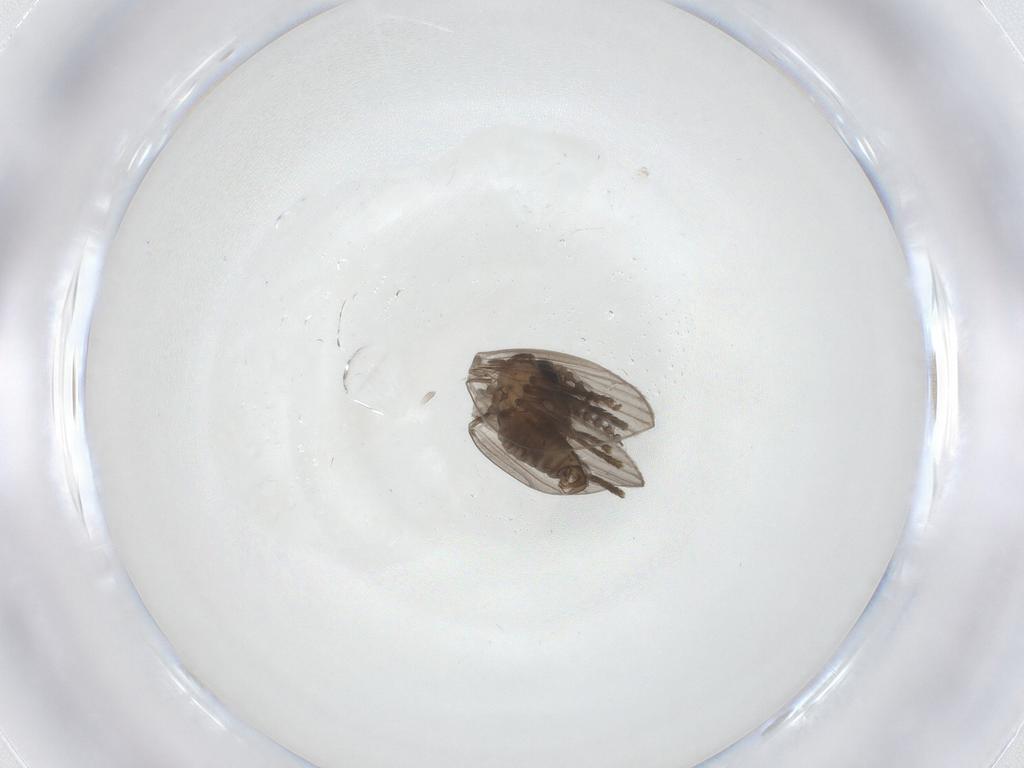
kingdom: Animalia
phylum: Arthropoda
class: Insecta
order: Diptera
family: Psychodidae
